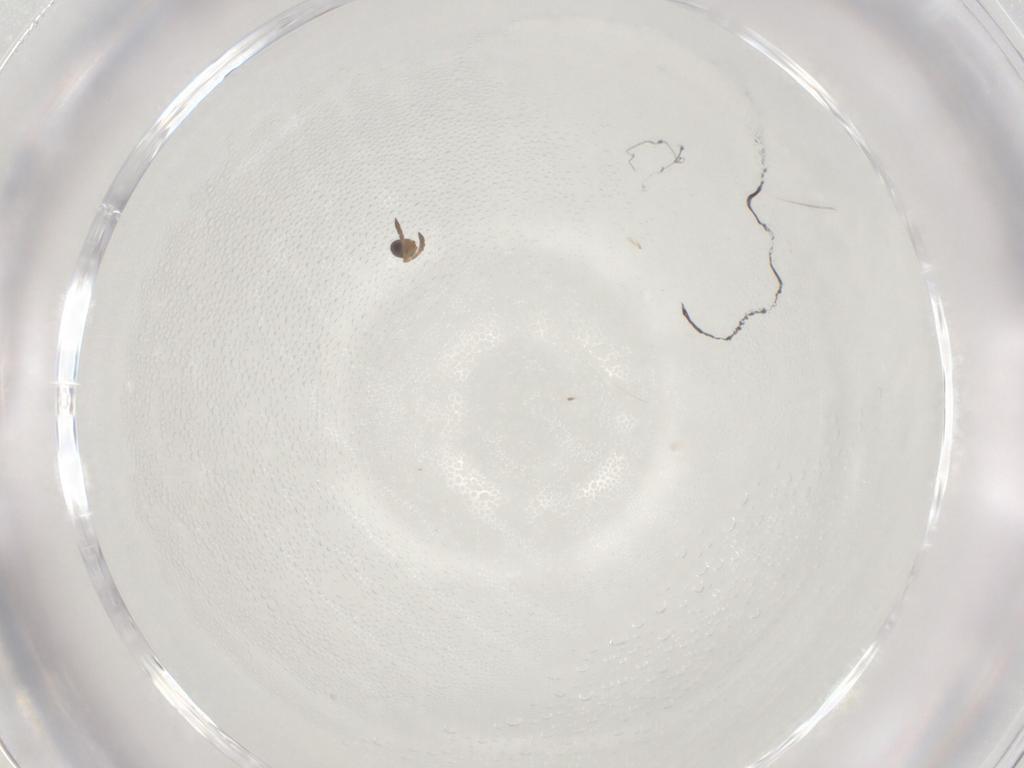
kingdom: Animalia
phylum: Arthropoda
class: Insecta
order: Hymenoptera
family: Ceraphronidae
